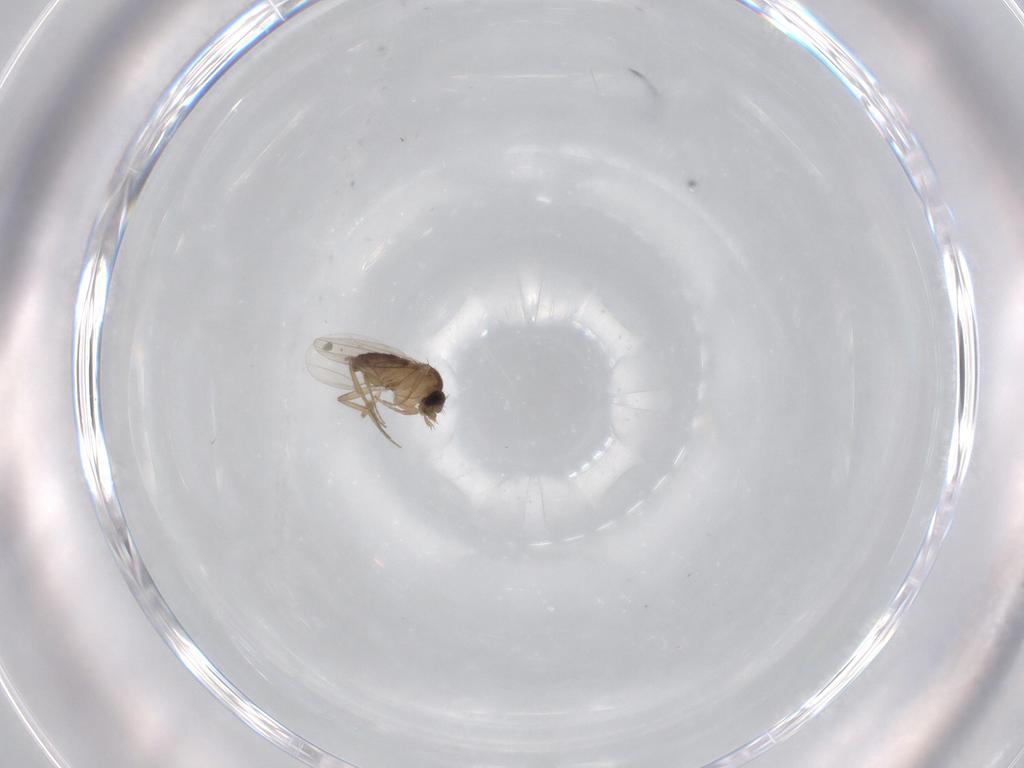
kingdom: Animalia
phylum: Arthropoda
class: Insecta
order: Diptera
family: Phoridae
